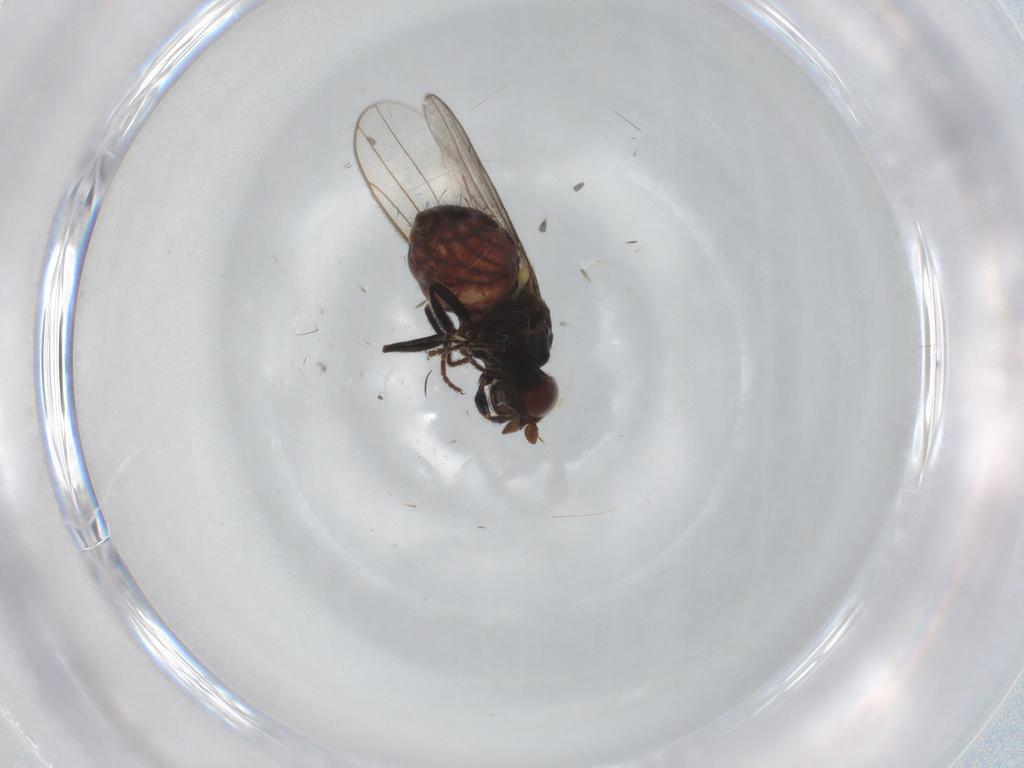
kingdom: Animalia
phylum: Arthropoda
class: Insecta
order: Diptera
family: Chloropidae
